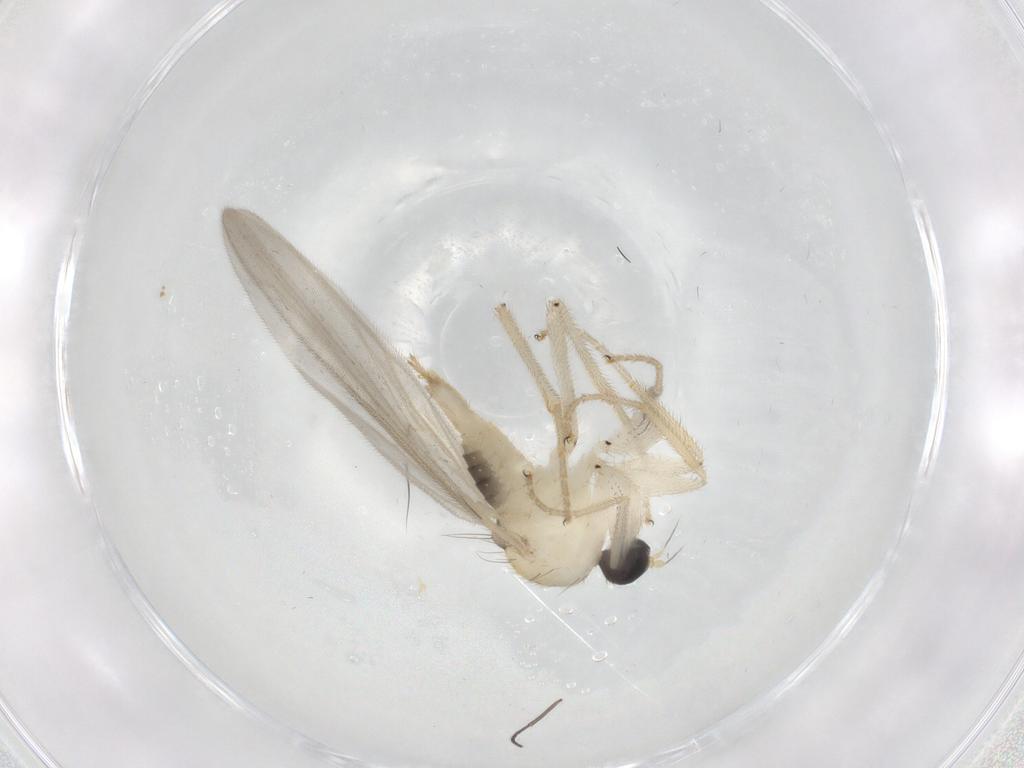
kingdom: Animalia
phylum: Arthropoda
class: Insecta
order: Diptera
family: Hybotidae
